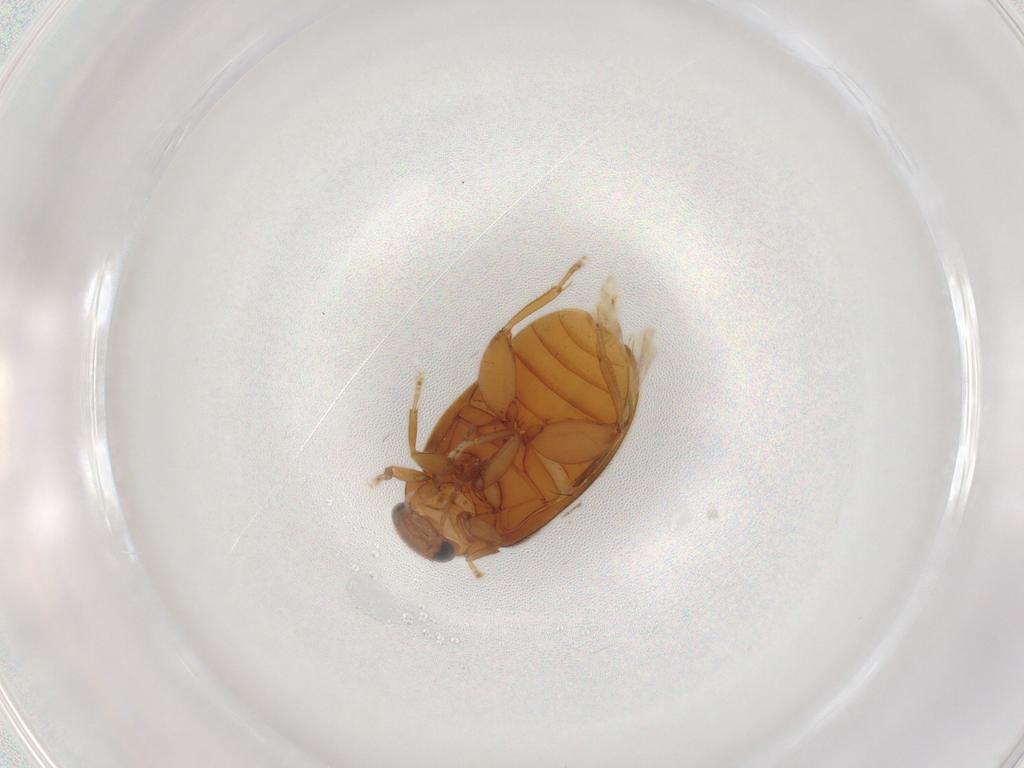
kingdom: Animalia
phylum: Arthropoda
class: Insecta
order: Coleoptera
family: Scirtidae
